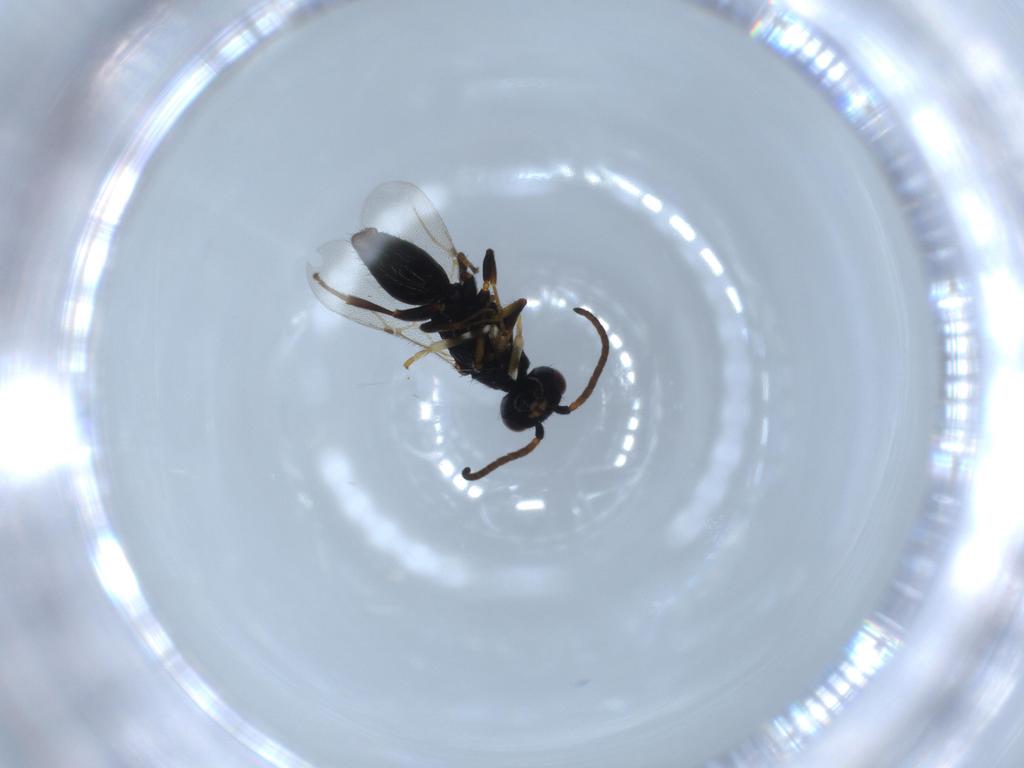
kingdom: Animalia
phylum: Arthropoda
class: Insecta
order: Hymenoptera
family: Bethylidae
